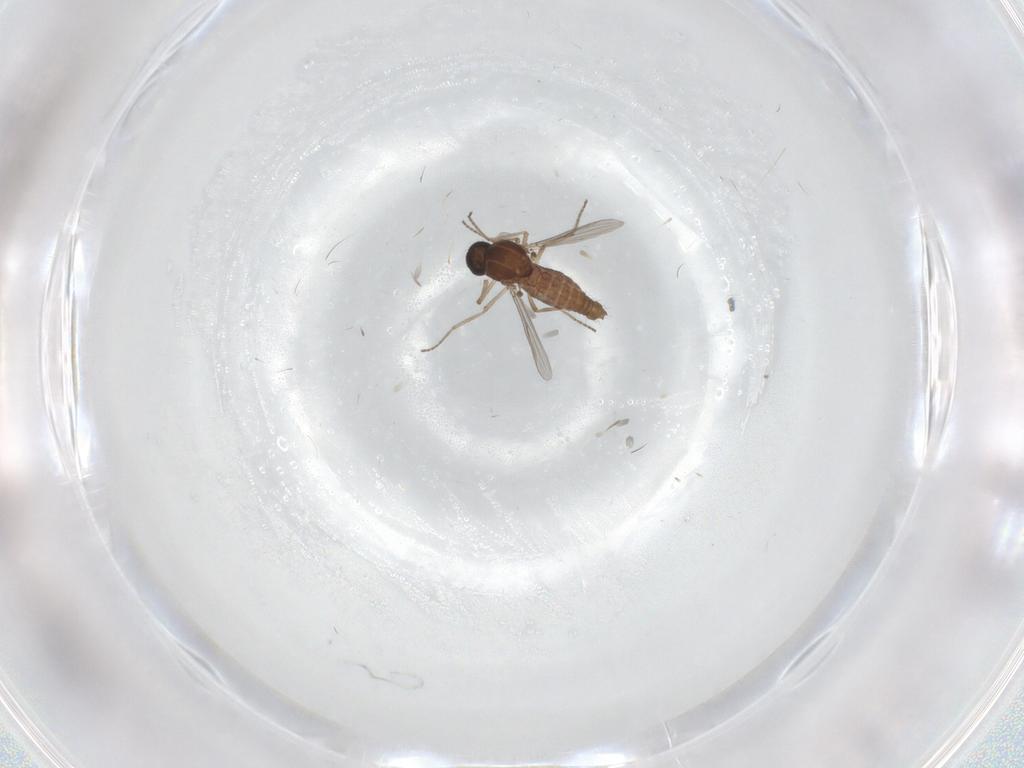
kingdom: Animalia
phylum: Arthropoda
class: Insecta
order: Diptera
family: Ceratopogonidae
